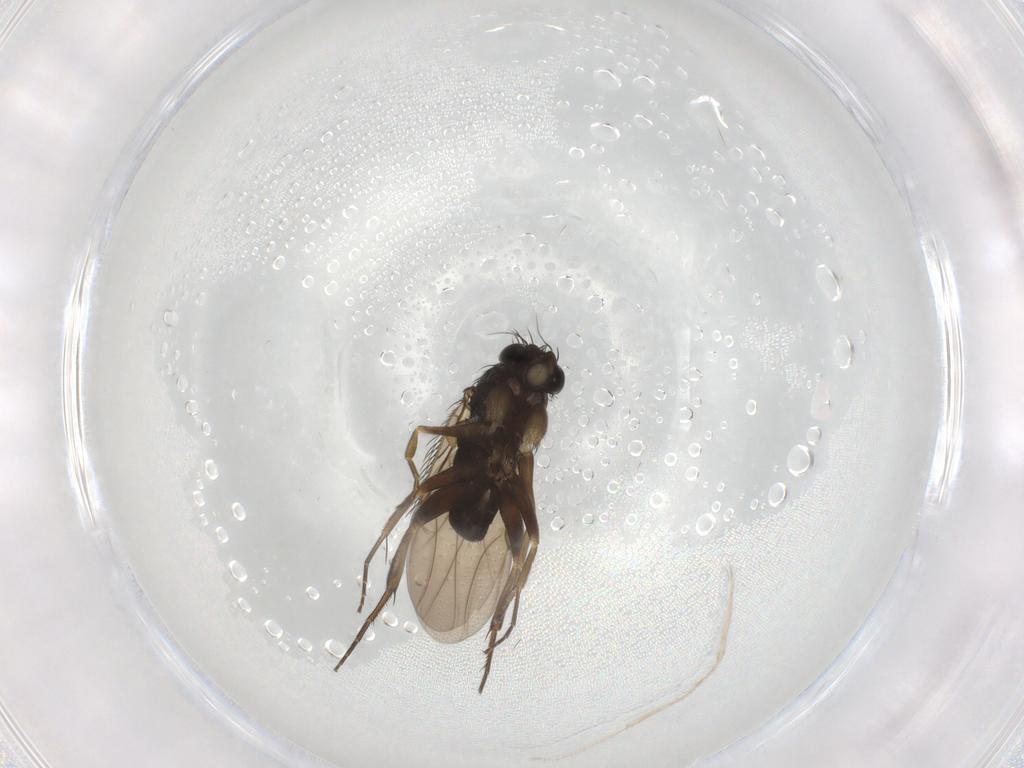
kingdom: Animalia
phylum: Arthropoda
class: Insecta
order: Diptera
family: Phoridae
